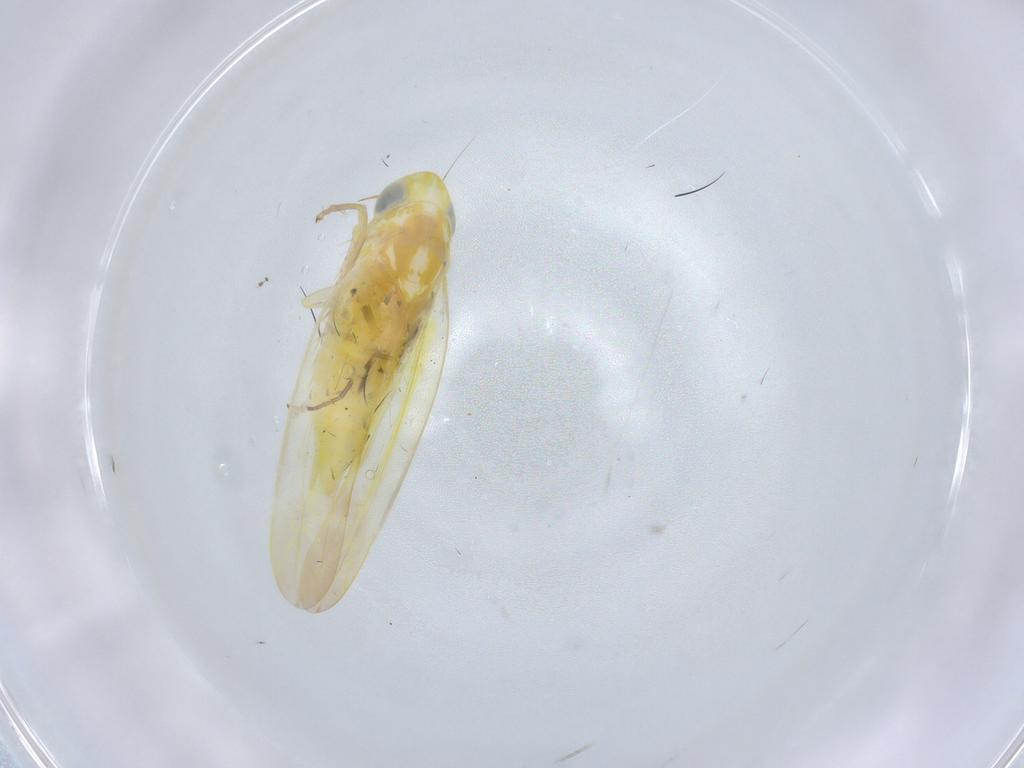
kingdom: Animalia
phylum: Arthropoda
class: Insecta
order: Hemiptera
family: Cicadellidae
